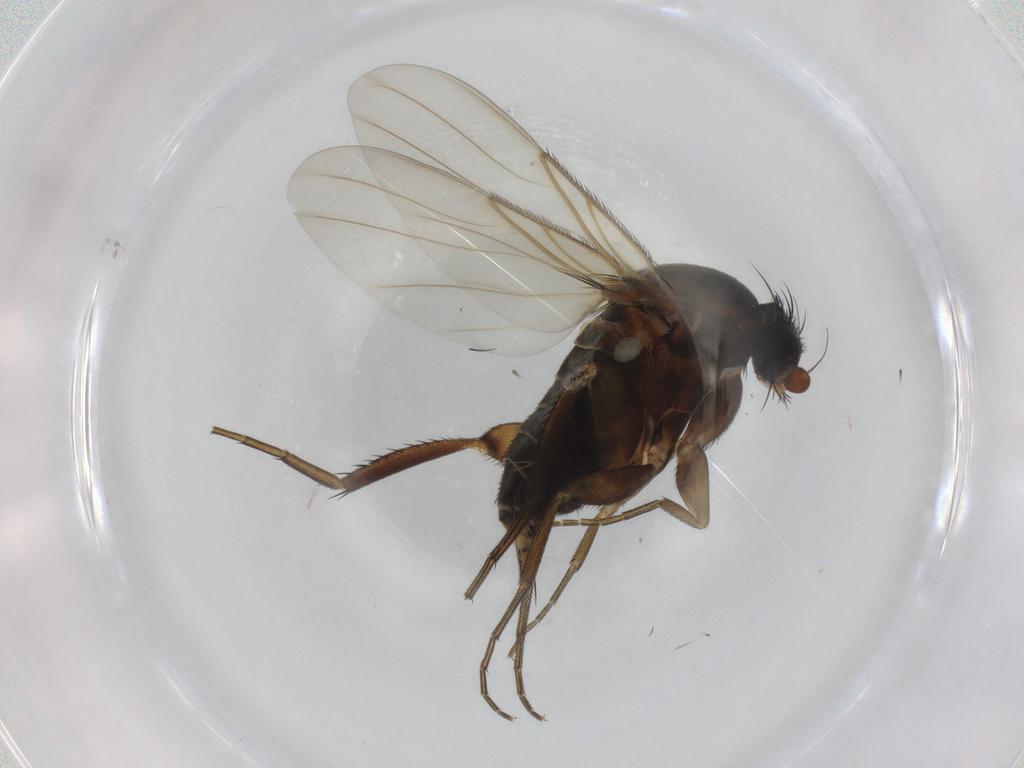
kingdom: Animalia
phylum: Arthropoda
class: Insecta
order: Diptera
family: Phoridae
